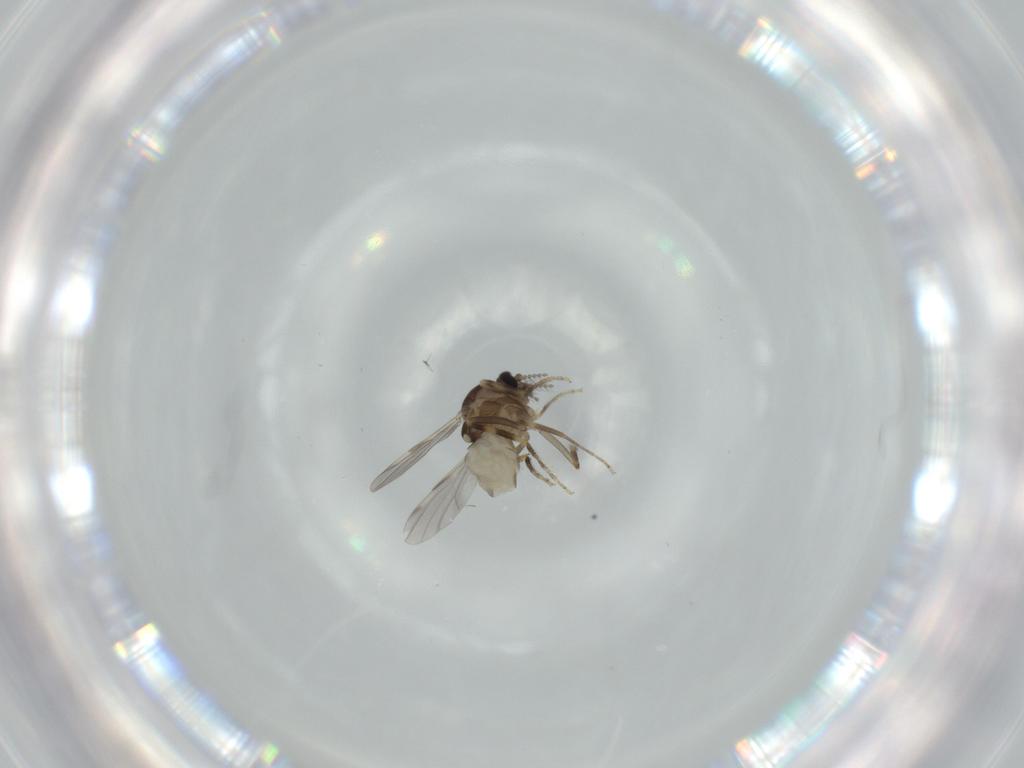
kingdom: Animalia
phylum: Arthropoda
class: Insecta
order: Diptera
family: Ceratopogonidae
